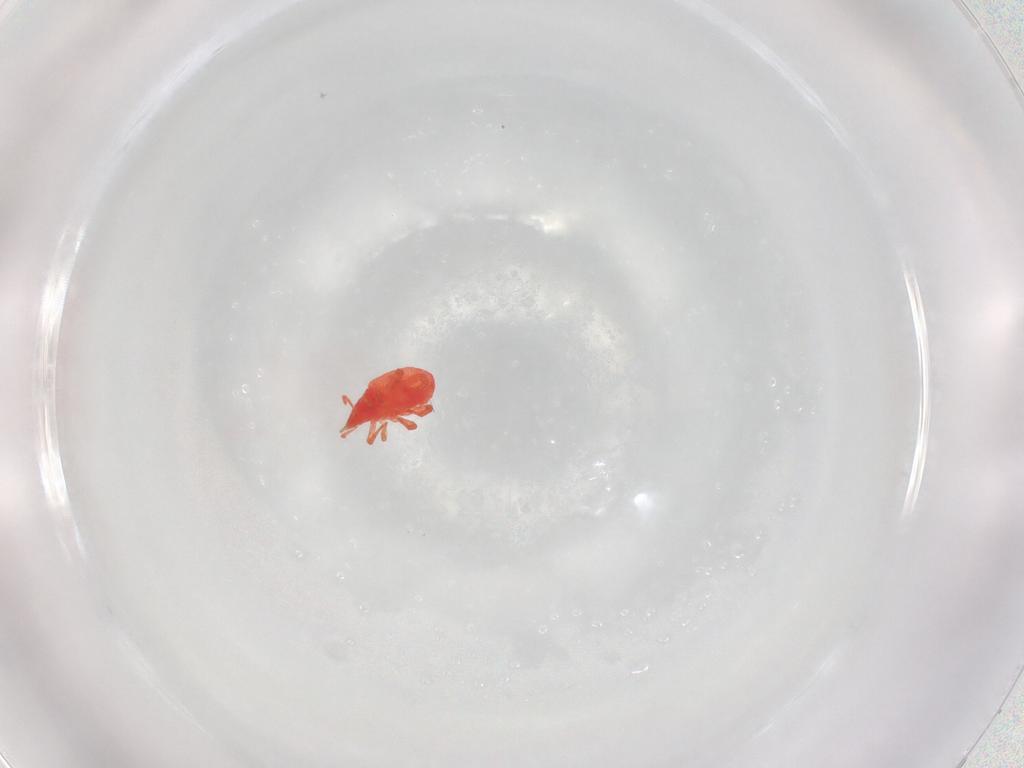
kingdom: Animalia
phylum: Arthropoda
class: Arachnida
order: Trombidiformes
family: Bdellidae
